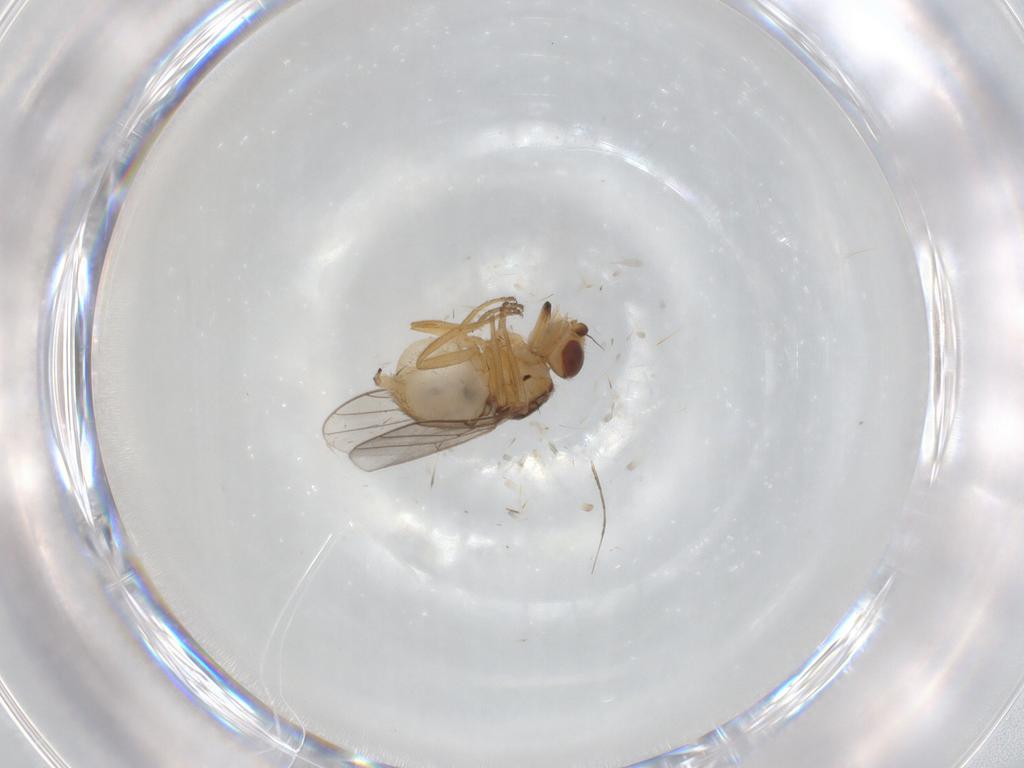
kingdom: Animalia
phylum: Arthropoda
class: Insecta
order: Diptera
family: Chloropidae
